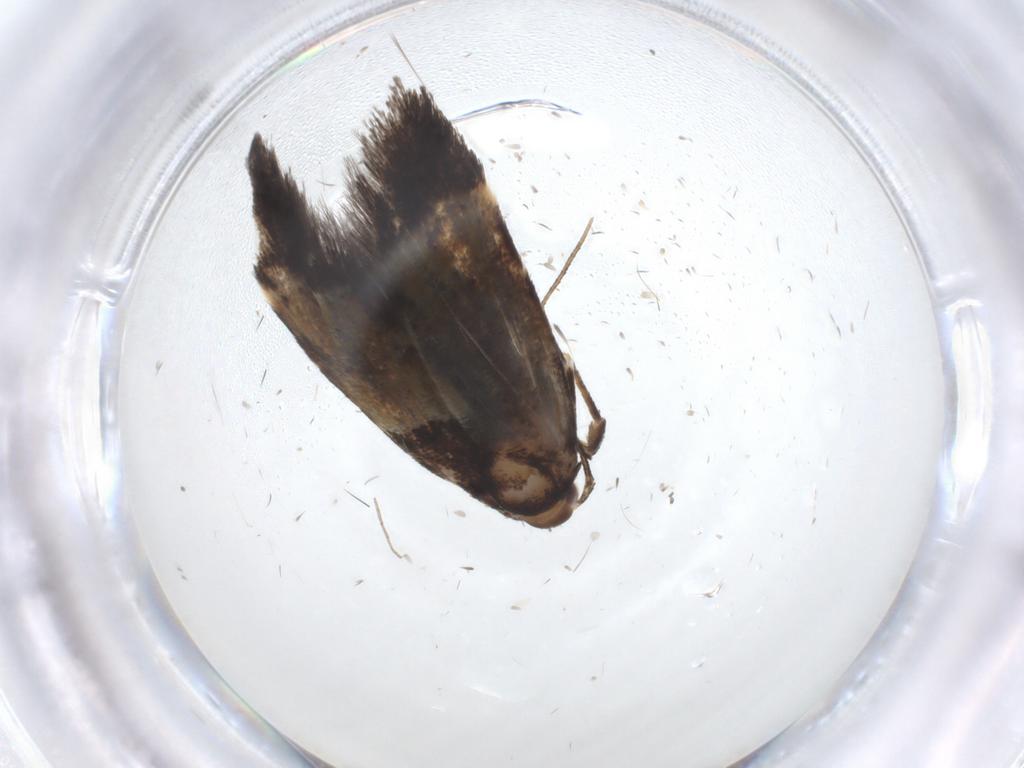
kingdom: Animalia
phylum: Arthropoda
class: Insecta
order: Lepidoptera
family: Cosmopterigidae
